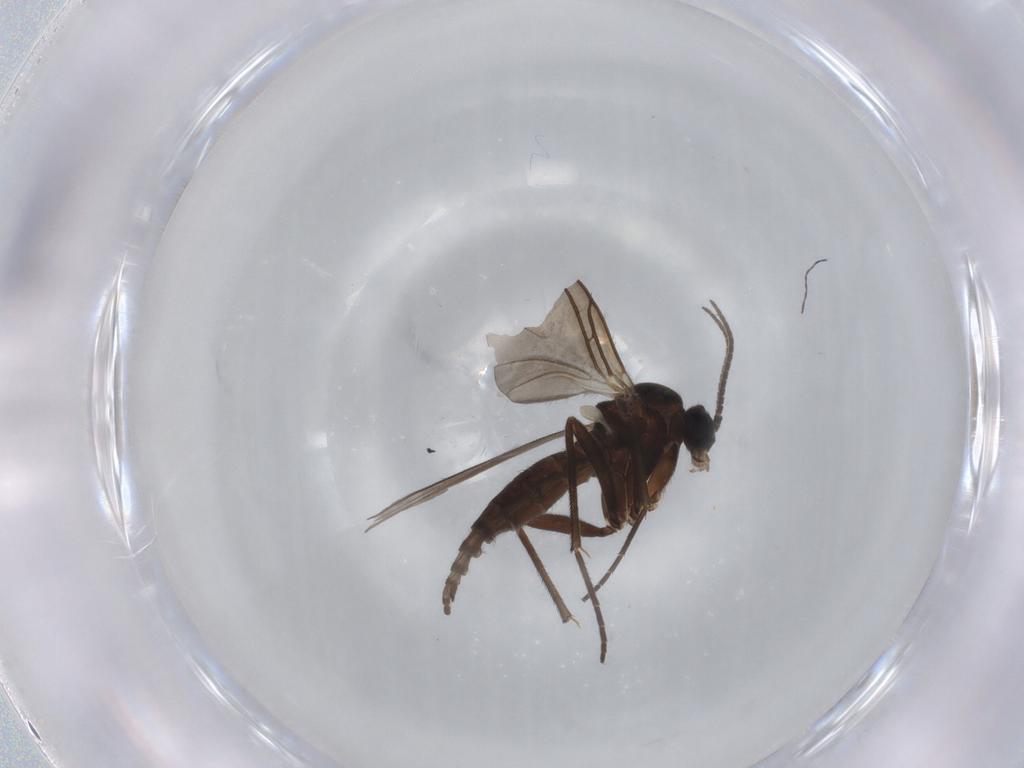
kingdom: Animalia
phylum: Arthropoda
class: Insecta
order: Diptera
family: Sciaridae
